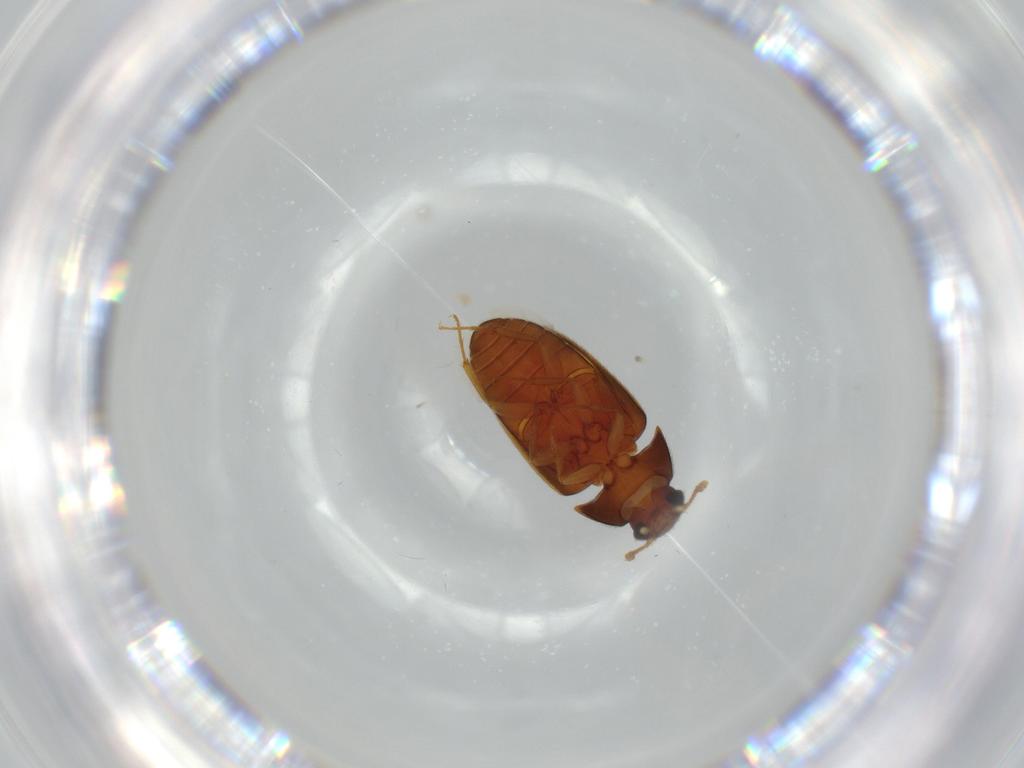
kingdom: Animalia
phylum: Arthropoda
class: Insecta
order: Coleoptera
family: Mycetophagidae
